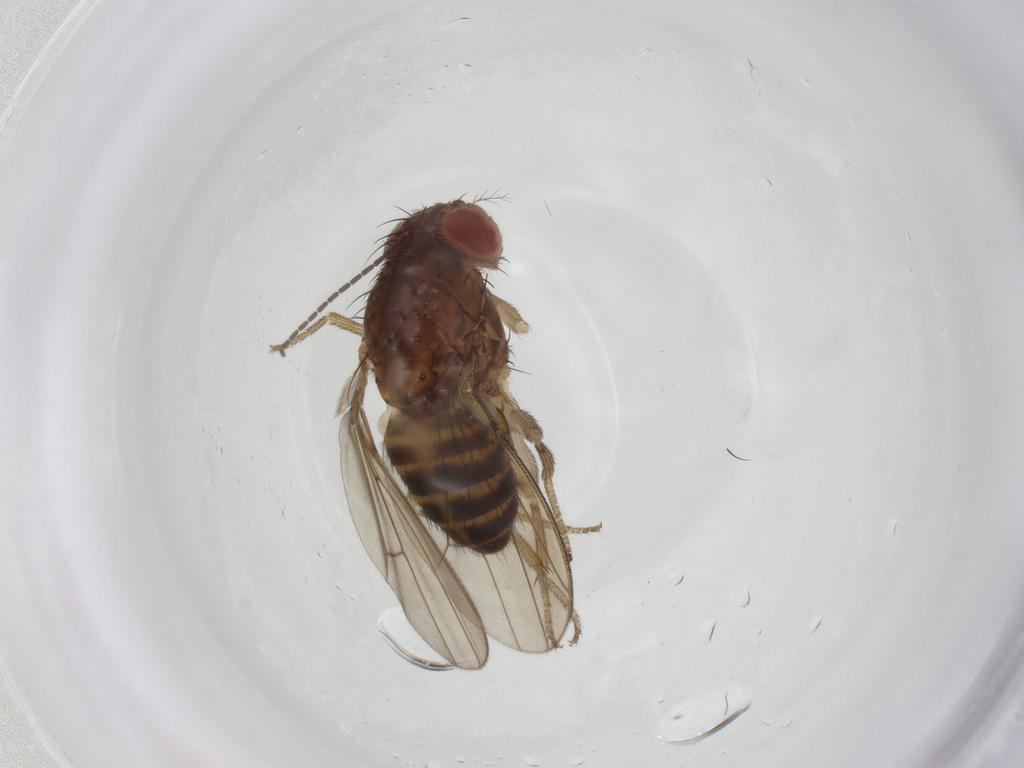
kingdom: Animalia
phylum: Arthropoda
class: Insecta
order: Diptera
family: Drosophilidae
